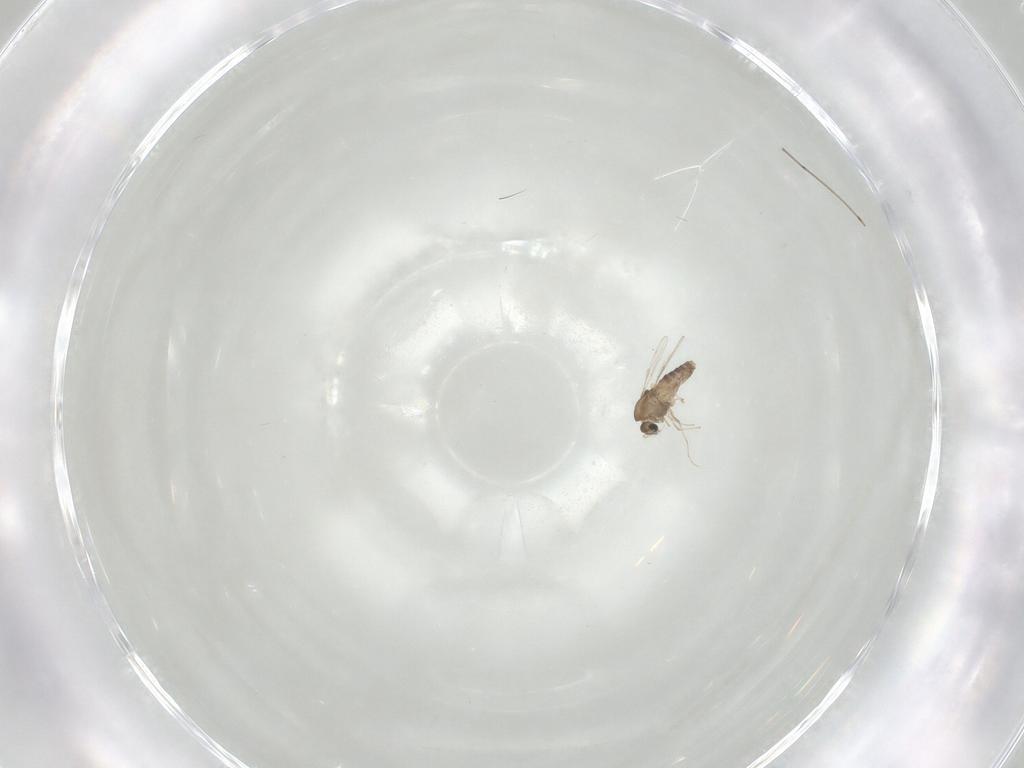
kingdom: Animalia
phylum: Arthropoda
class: Insecta
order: Diptera
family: Chironomidae
